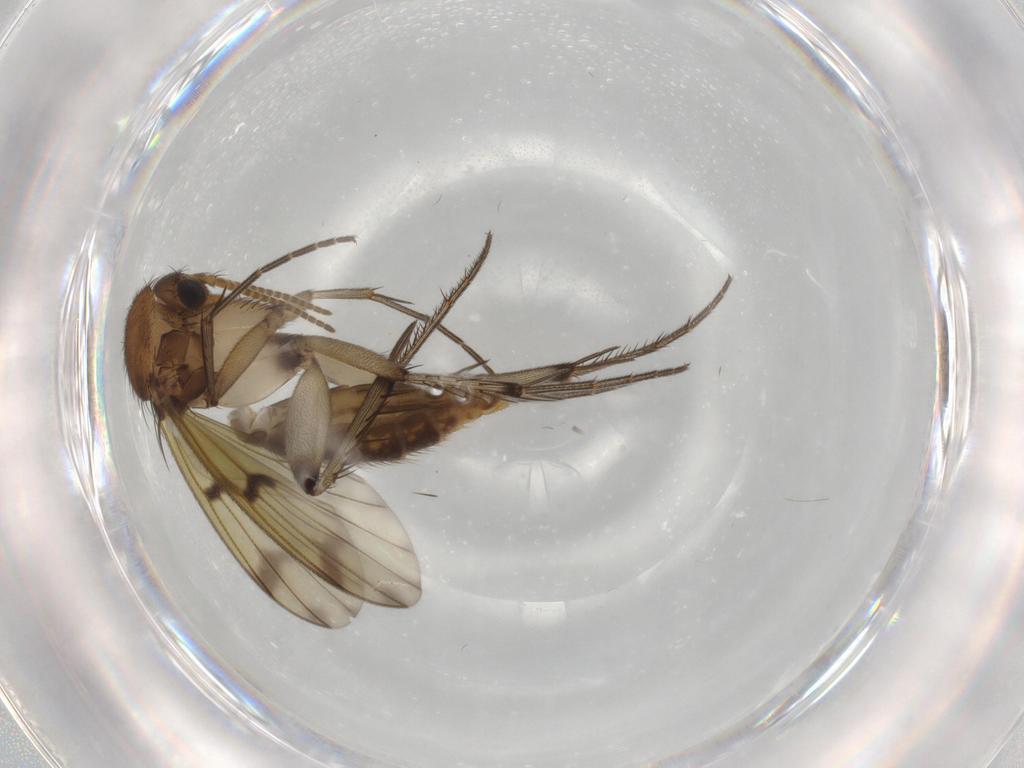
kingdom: Animalia
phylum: Arthropoda
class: Insecta
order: Diptera
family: Mycetophilidae
